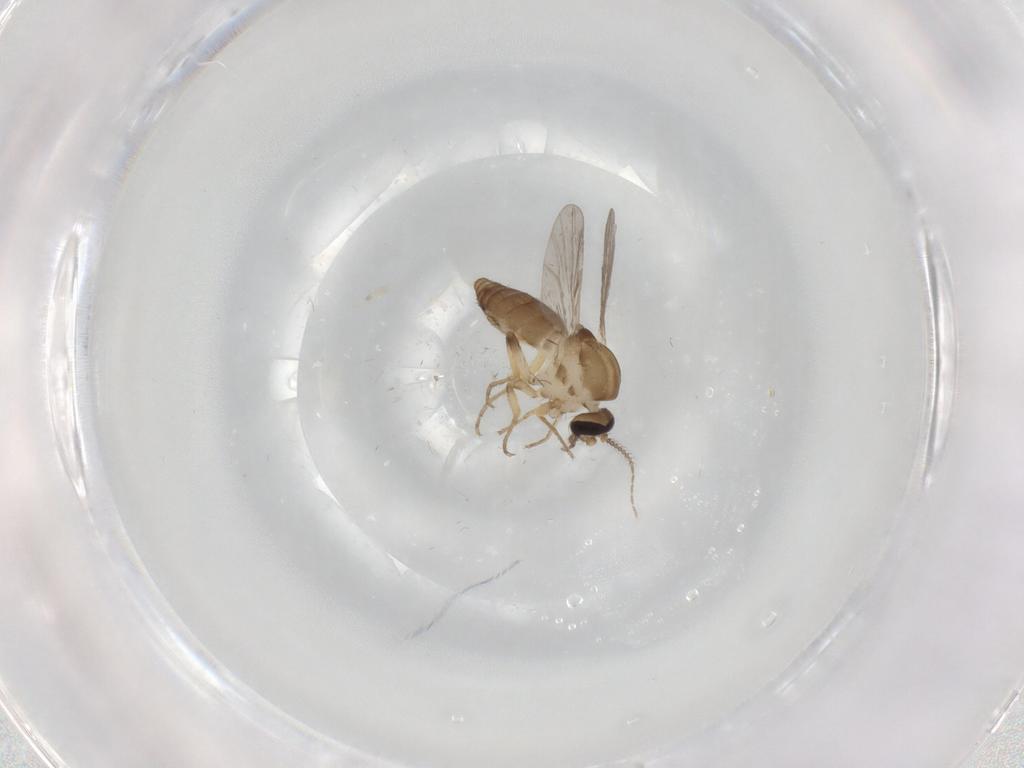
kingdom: Animalia
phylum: Arthropoda
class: Insecta
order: Diptera
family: Ceratopogonidae
